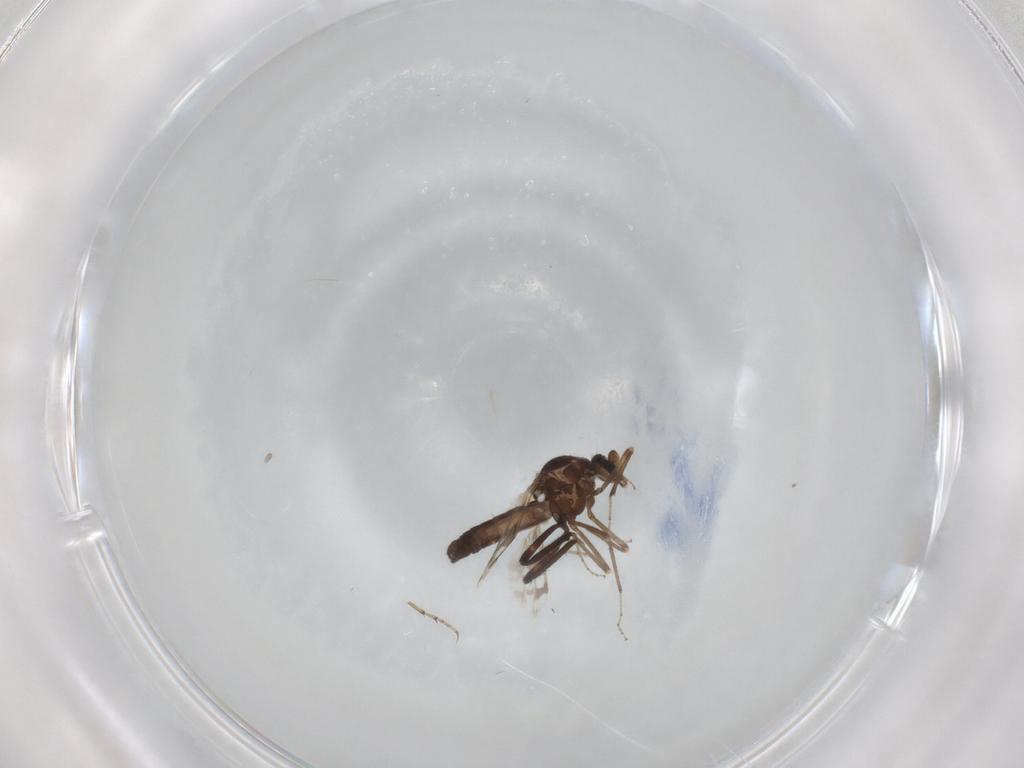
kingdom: Animalia
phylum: Arthropoda
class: Insecta
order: Diptera
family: Ceratopogonidae
